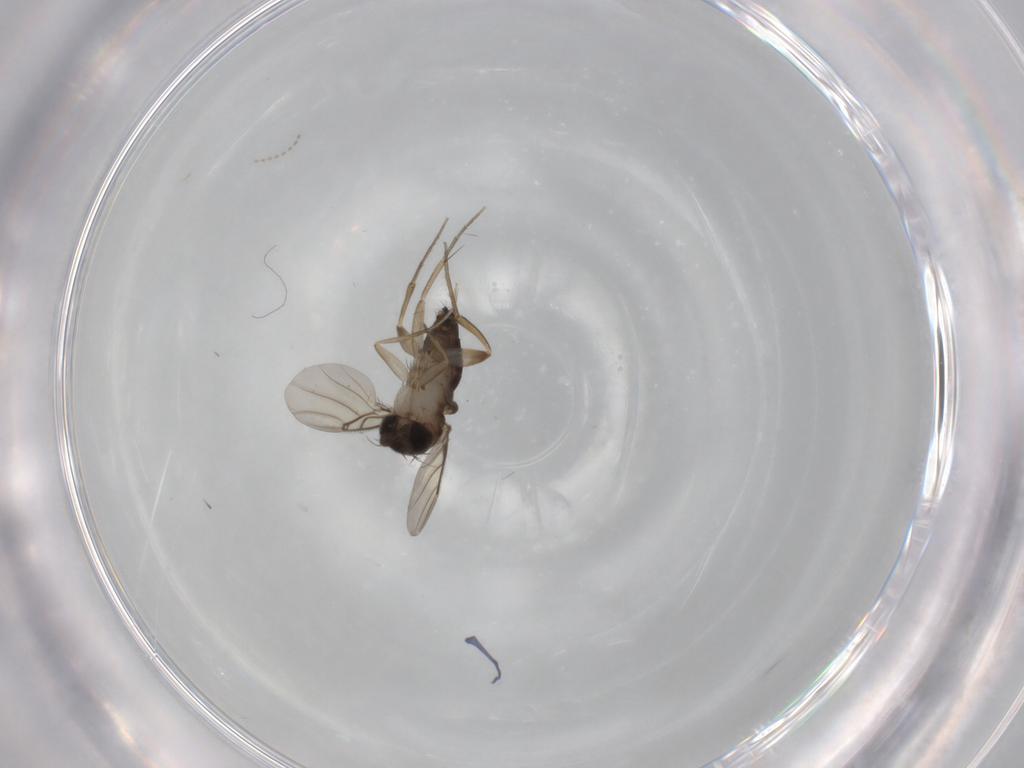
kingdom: Animalia
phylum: Arthropoda
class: Insecta
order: Diptera
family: Phoridae
